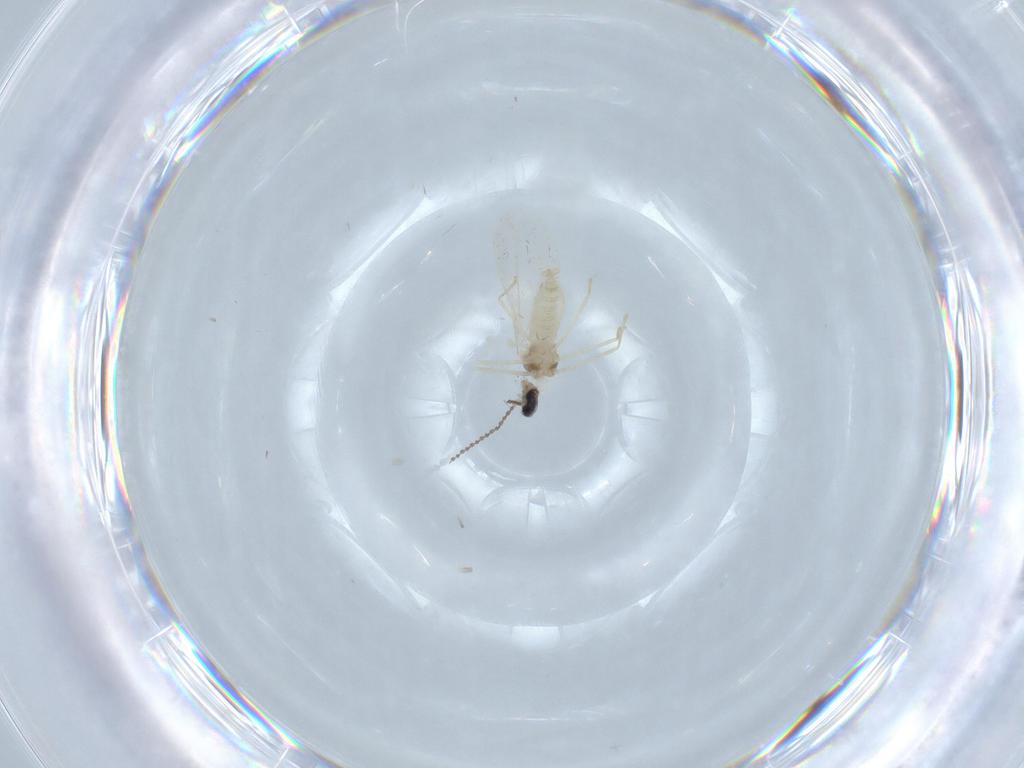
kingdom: Animalia
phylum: Arthropoda
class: Insecta
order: Diptera
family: Cecidomyiidae
